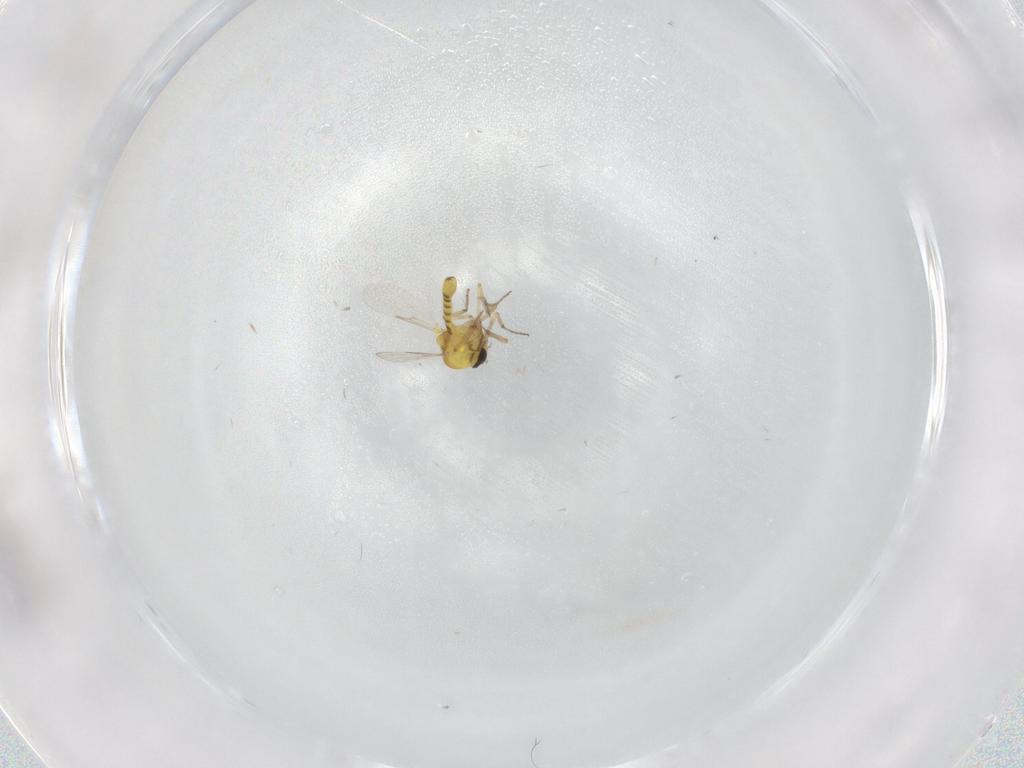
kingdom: Animalia
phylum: Arthropoda
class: Insecta
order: Diptera
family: Ceratopogonidae
